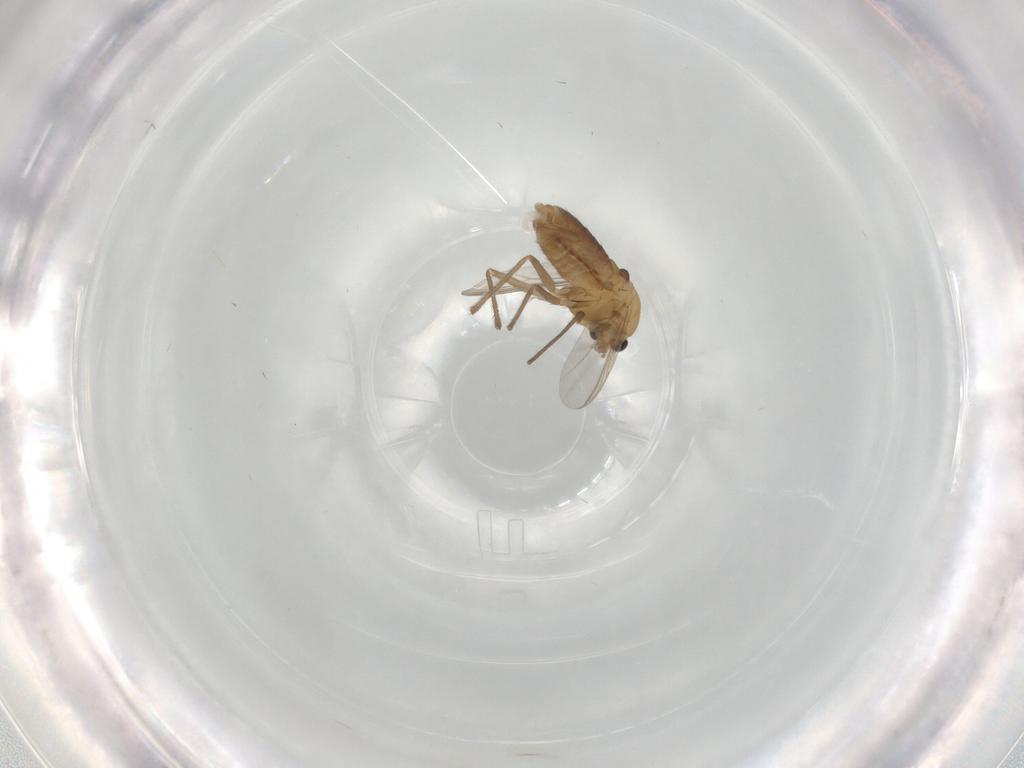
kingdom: Animalia
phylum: Arthropoda
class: Insecta
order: Diptera
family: Chironomidae
